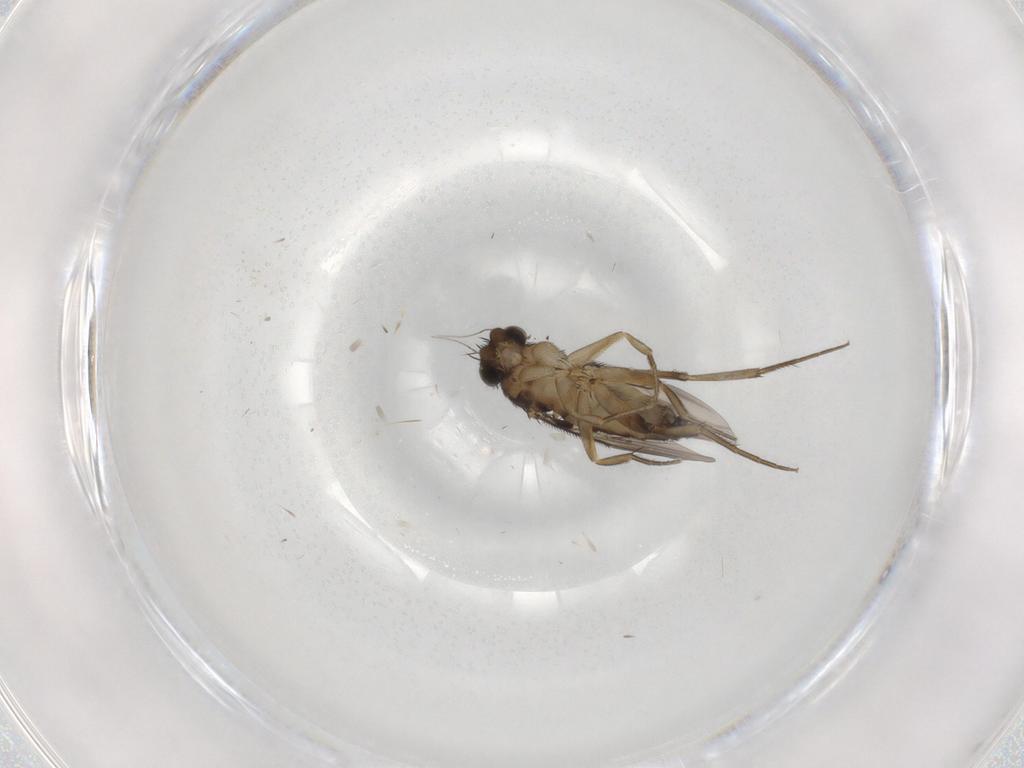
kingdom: Animalia
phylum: Arthropoda
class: Insecta
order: Diptera
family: Phoridae
